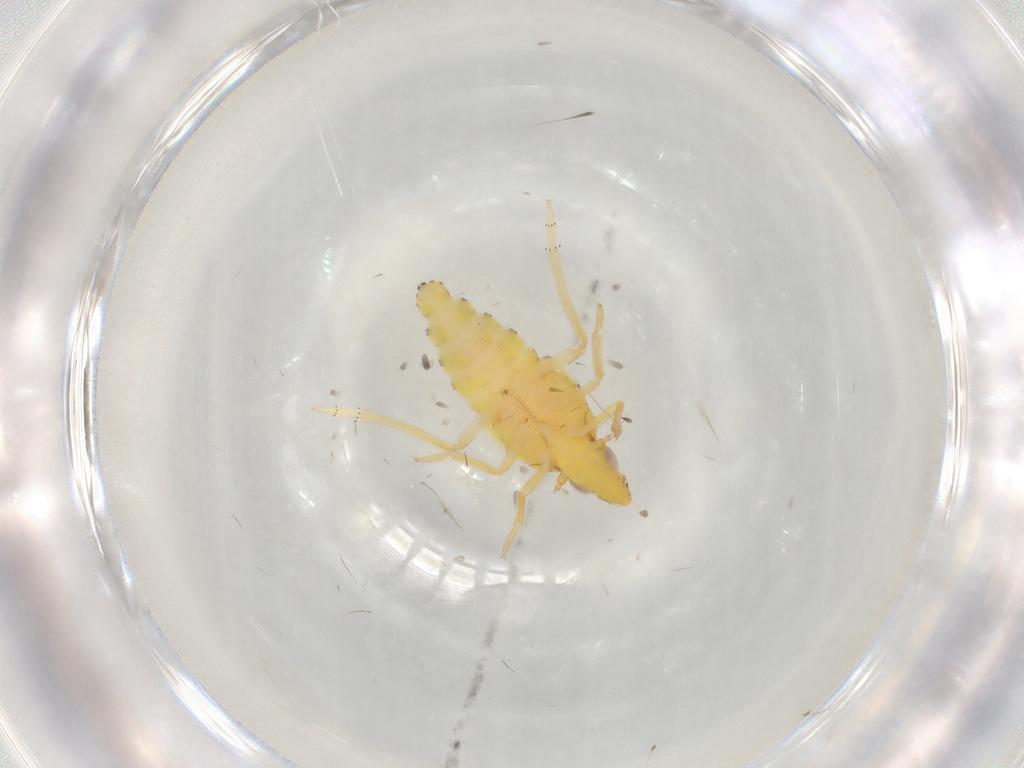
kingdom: Animalia
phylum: Arthropoda
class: Insecta
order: Hemiptera
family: Tropiduchidae
